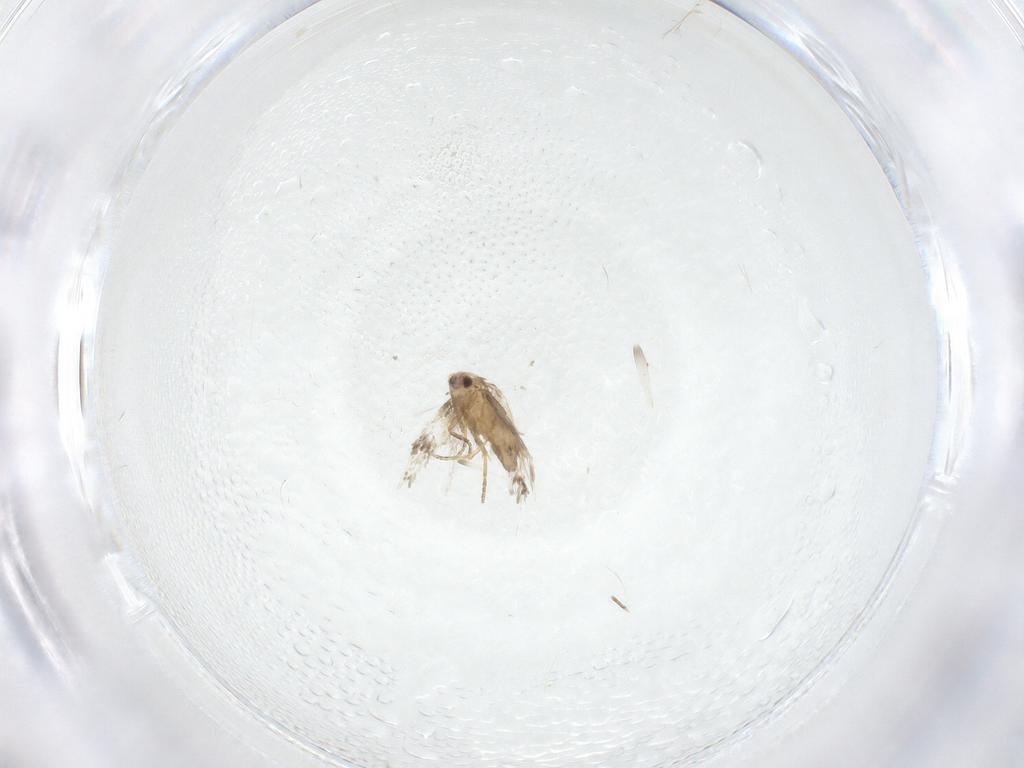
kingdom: Animalia
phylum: Arthropoda
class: Insecta
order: Lepidoptera
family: Nepticulidae
